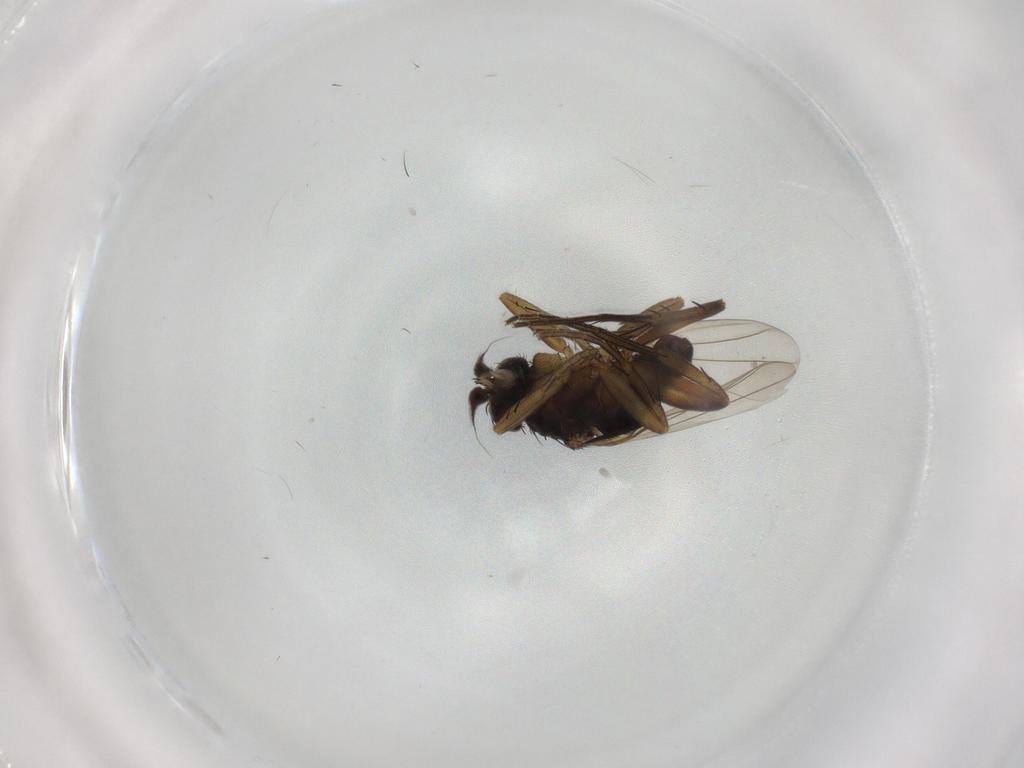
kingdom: Animalia
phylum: Arthropoda
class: Insecta
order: Diptera
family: Phoridae
